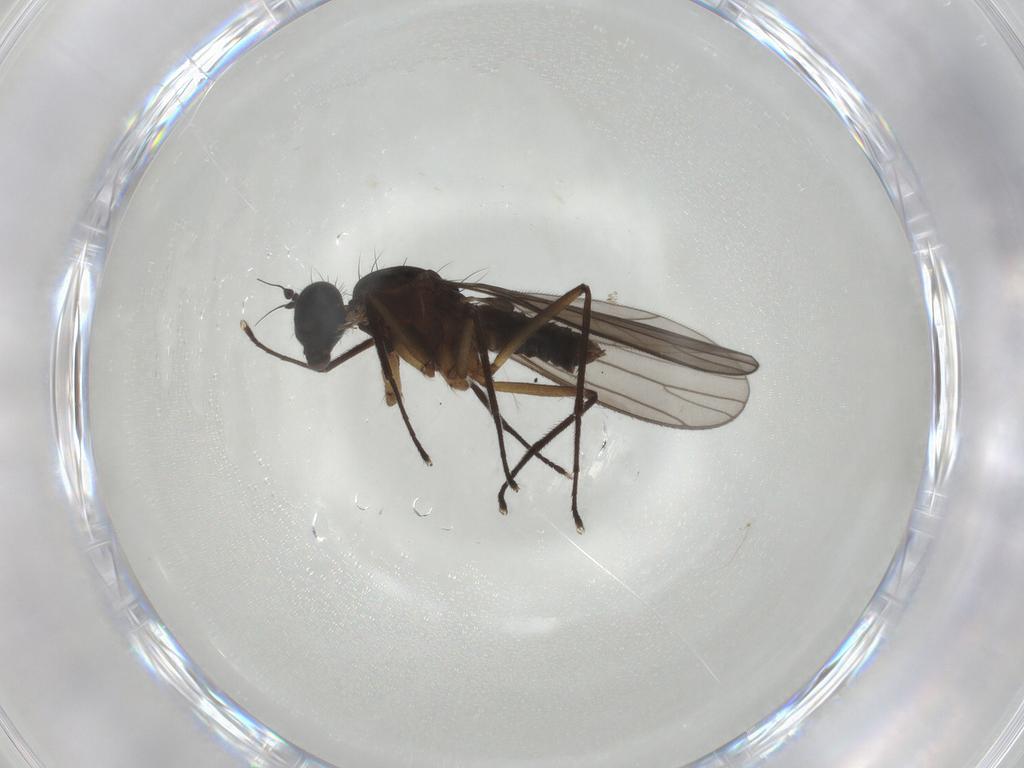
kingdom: Animalia
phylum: Arthropoda
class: Insecta
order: Diptera
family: Empididae
